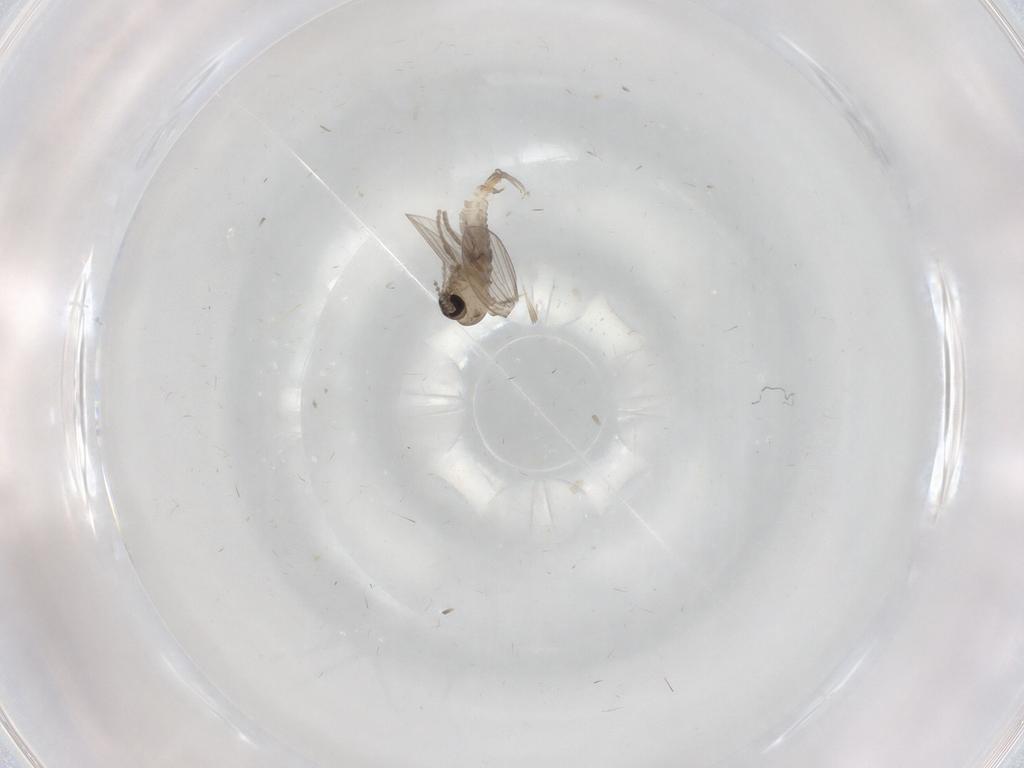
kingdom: Animalia
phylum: Arthropoda
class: Insecta
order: Diptera
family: Psychodidae
